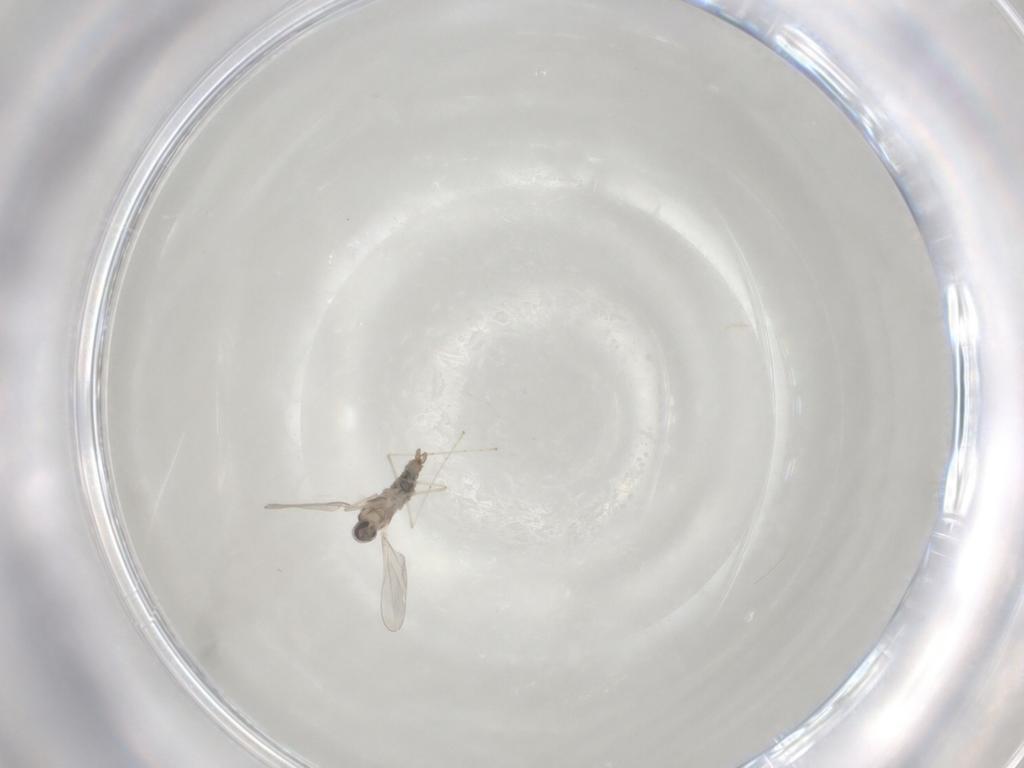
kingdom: Animalia
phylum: Arthropoda
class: Insecta
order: Diptera
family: Cecidomyiidae
